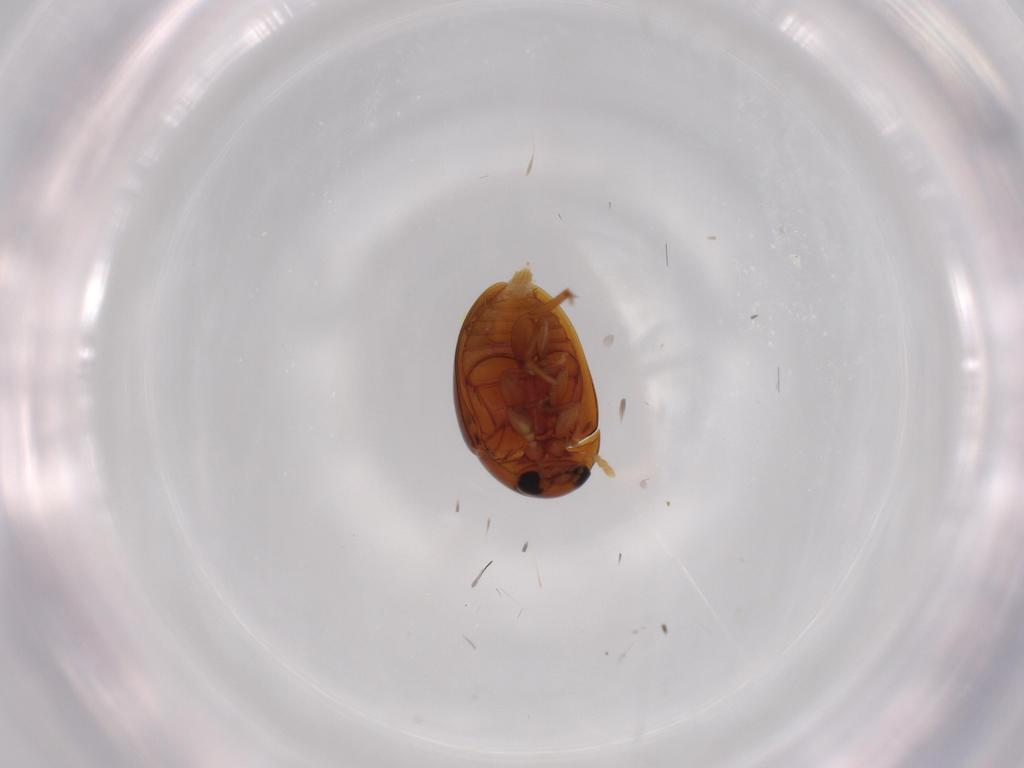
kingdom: Animalia
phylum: Arthropoda
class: Insecta
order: Coleoptera
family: Phalacridae
